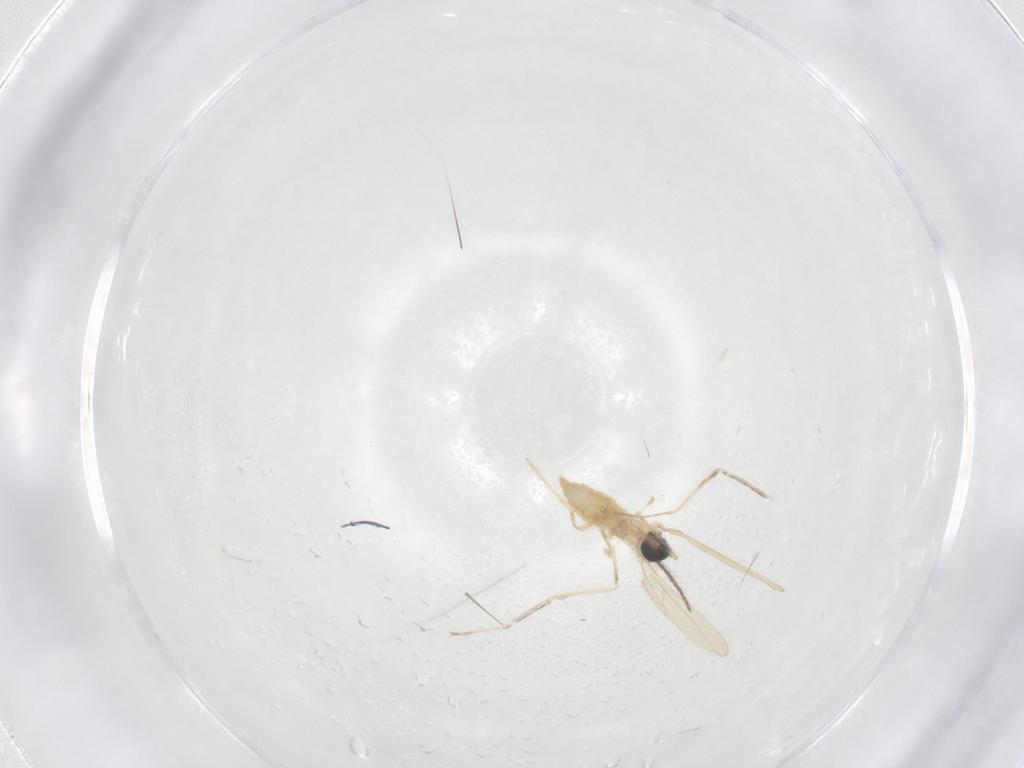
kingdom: Animalia
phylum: Arthropoda
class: Insecta
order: Diptera
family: Cecidomyiidae
